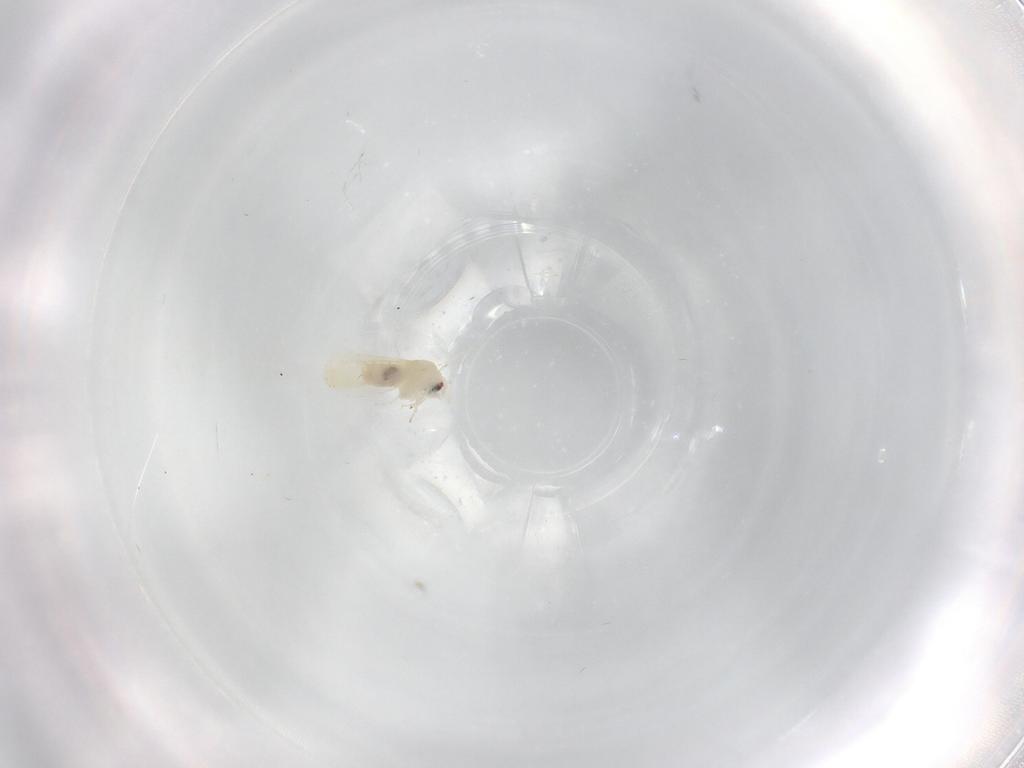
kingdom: Animalia
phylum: Arthropoda
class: Insecta
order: Hemiptera
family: Aleyrodidae
